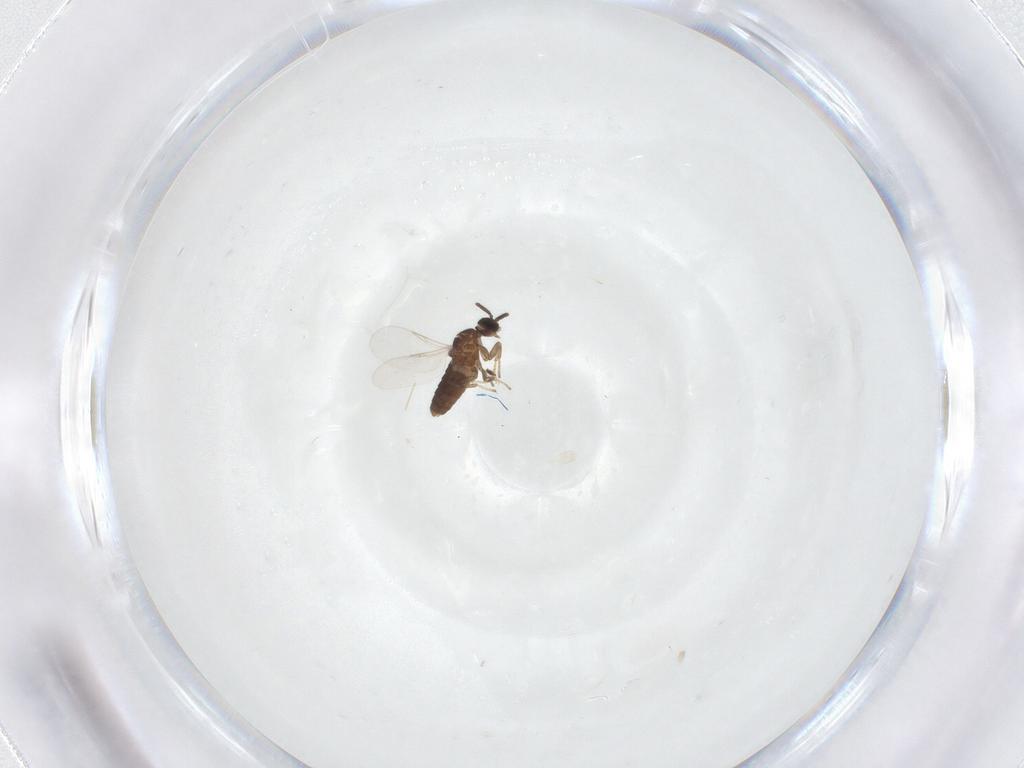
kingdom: Animalia
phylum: Arthropoda
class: Insecta
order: Diptera
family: Scatopsidae
